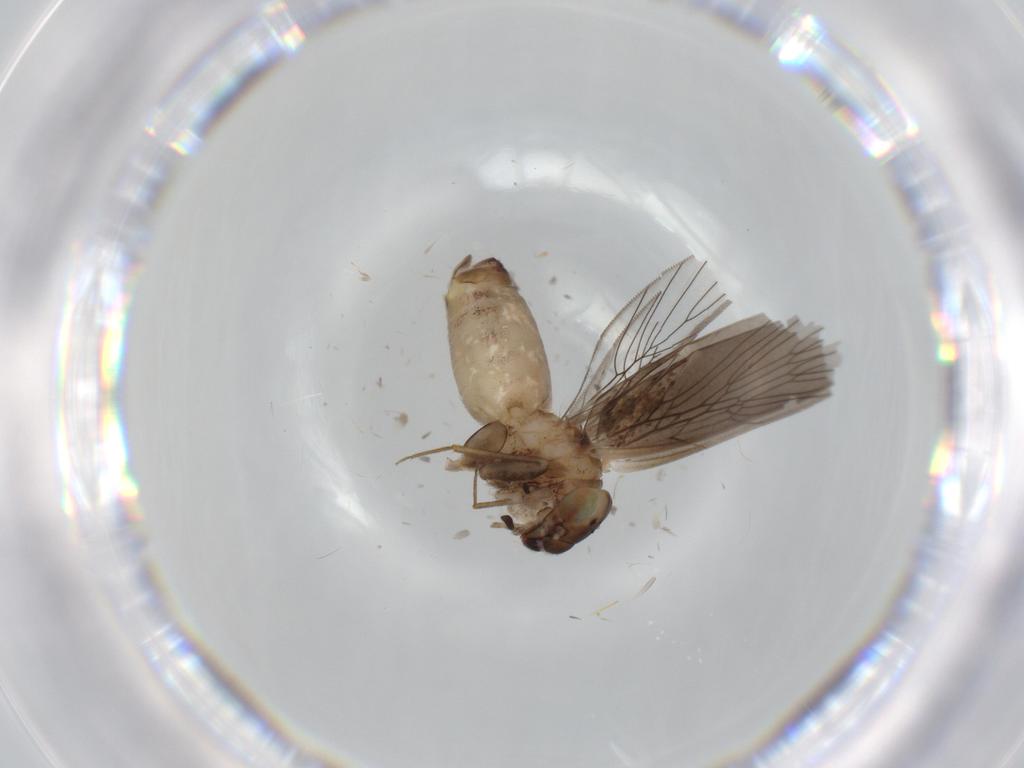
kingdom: Animalia
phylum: Arthropoda
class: Insecta
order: Psocodea
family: Lepidopsocidae
